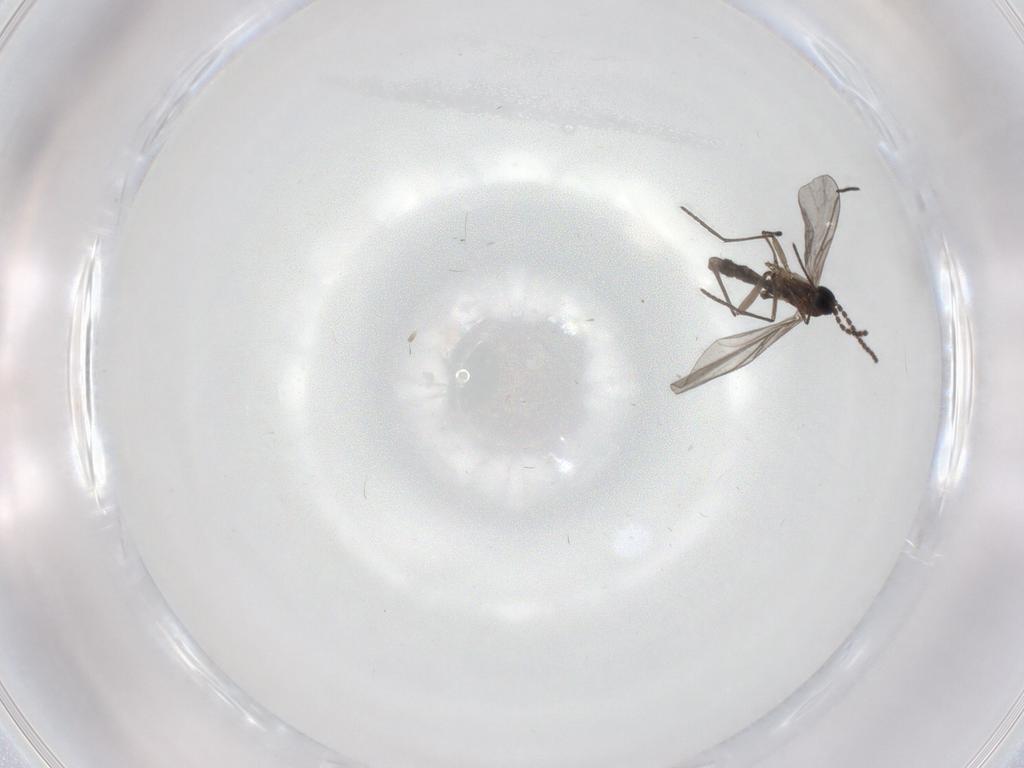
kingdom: Animalia
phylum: Arthropoda
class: Insecta
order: Diptera
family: Limoniidae
